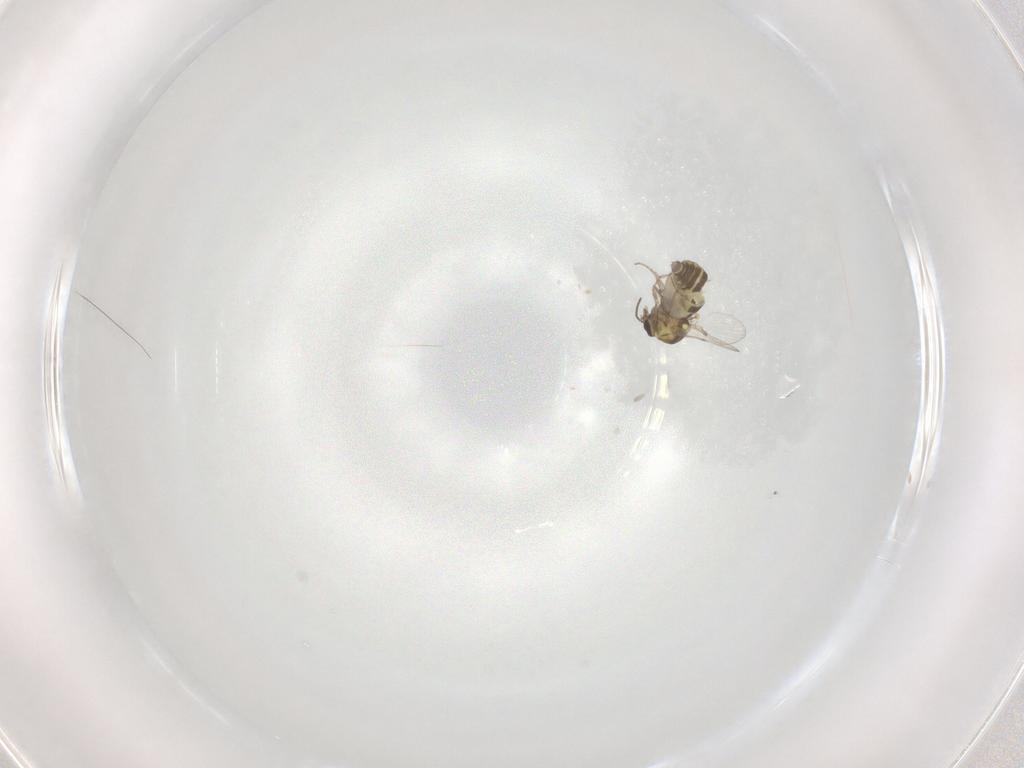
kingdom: Animalia
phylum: Arthropoda
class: Insecta
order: Diptera
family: Ceratopogonidae
